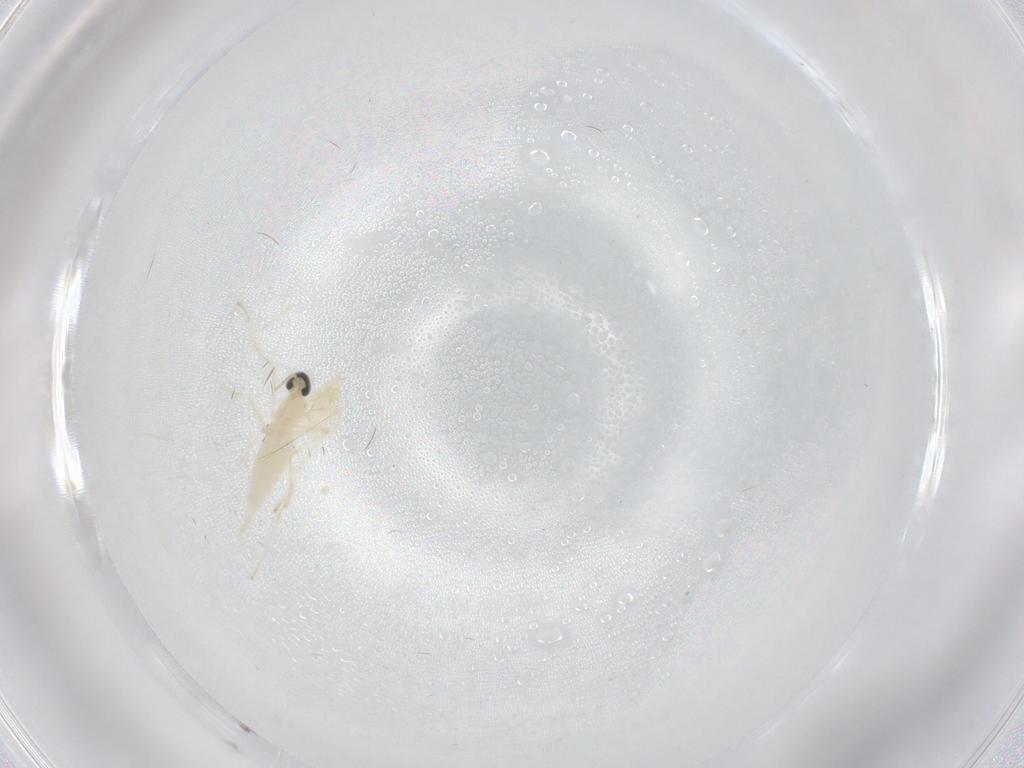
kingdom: Animalia
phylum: Arthropoda
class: Insecta
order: Diptera
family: Cecidomyiidae
